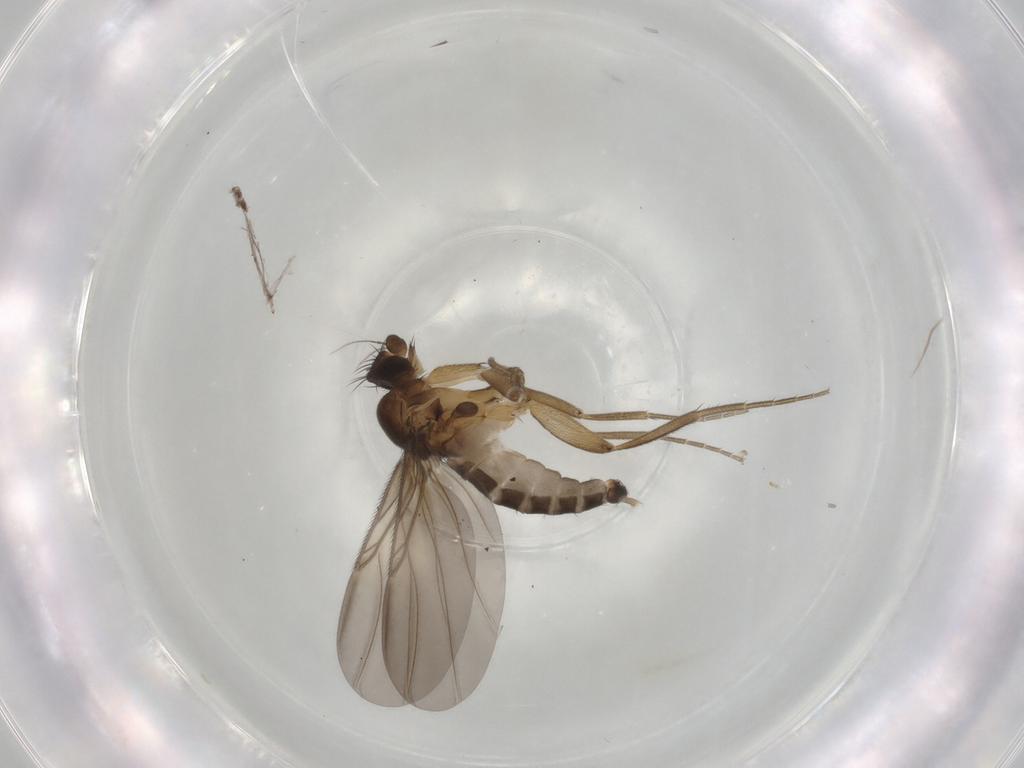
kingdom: Animalia
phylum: Arthropoda
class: Insecta
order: Diptera
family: Phoridae
